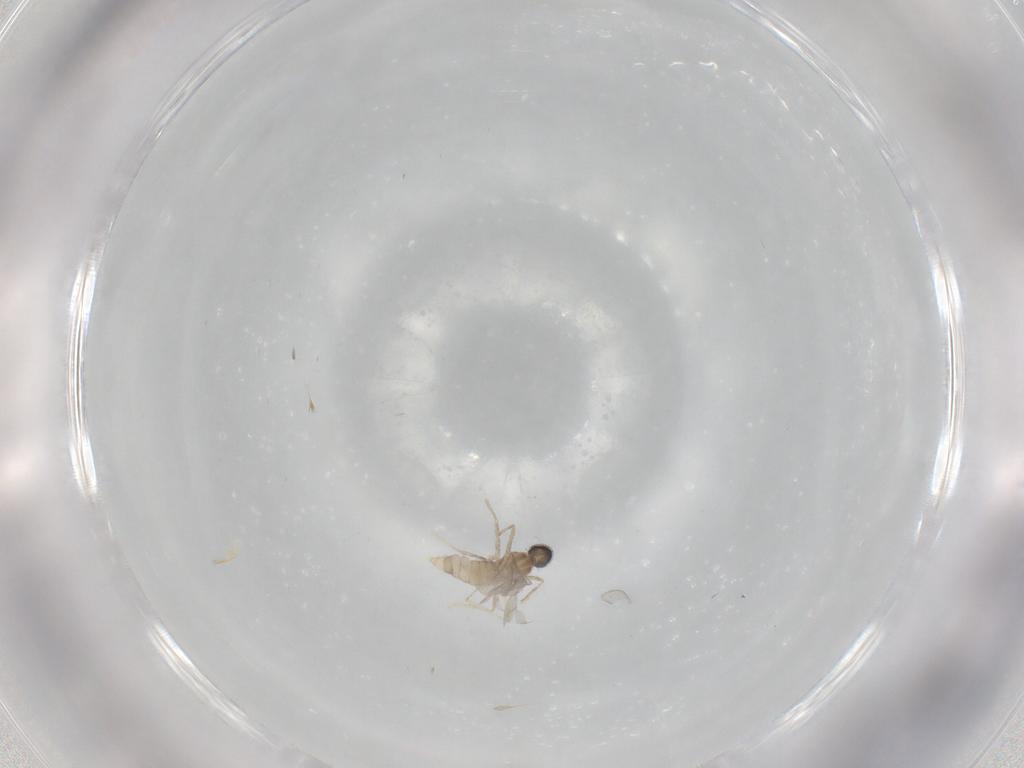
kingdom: Animalia
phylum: Arthropoda
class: Insecta
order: Diptera
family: Cecidomyiidae
